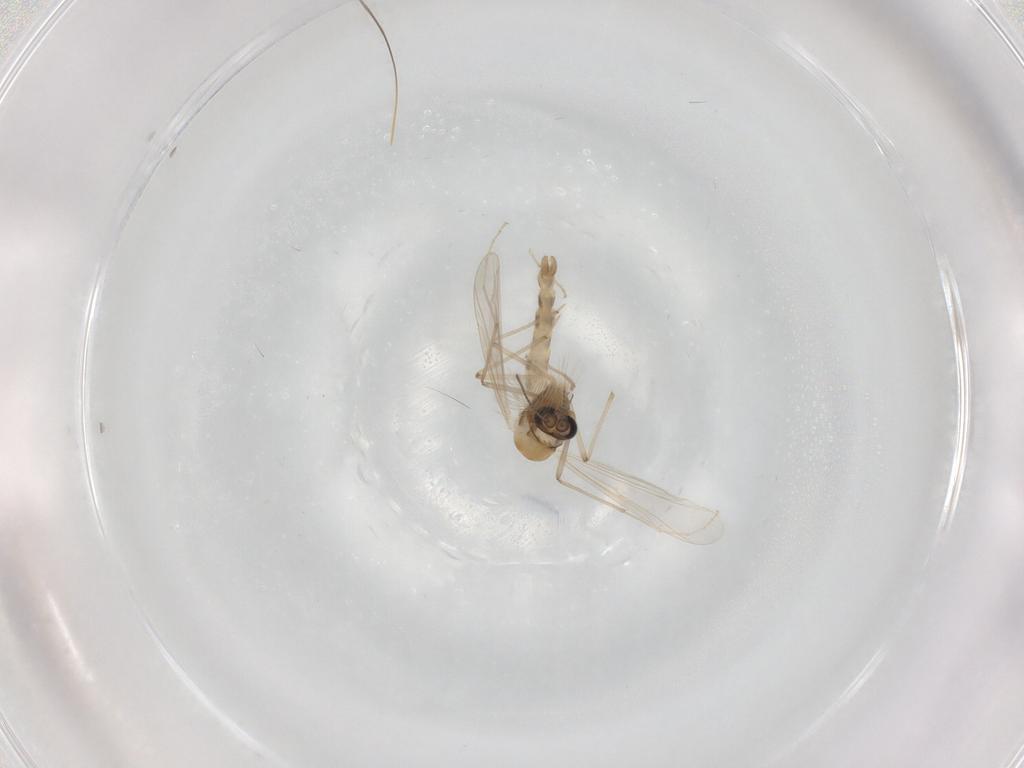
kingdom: Animalia
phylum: Arthropoda
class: Insecta
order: Diptera
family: Chironomidae
